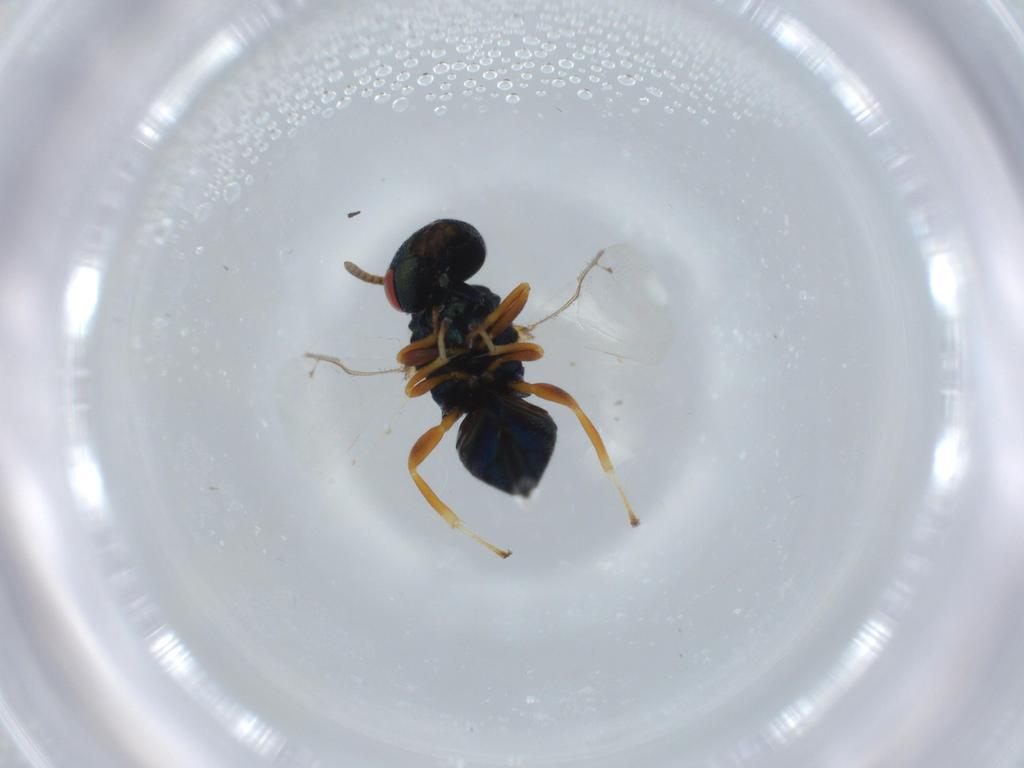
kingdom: Animalia
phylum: Arthropoda
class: Insecta
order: Hymenoptera
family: Pteromalidae
